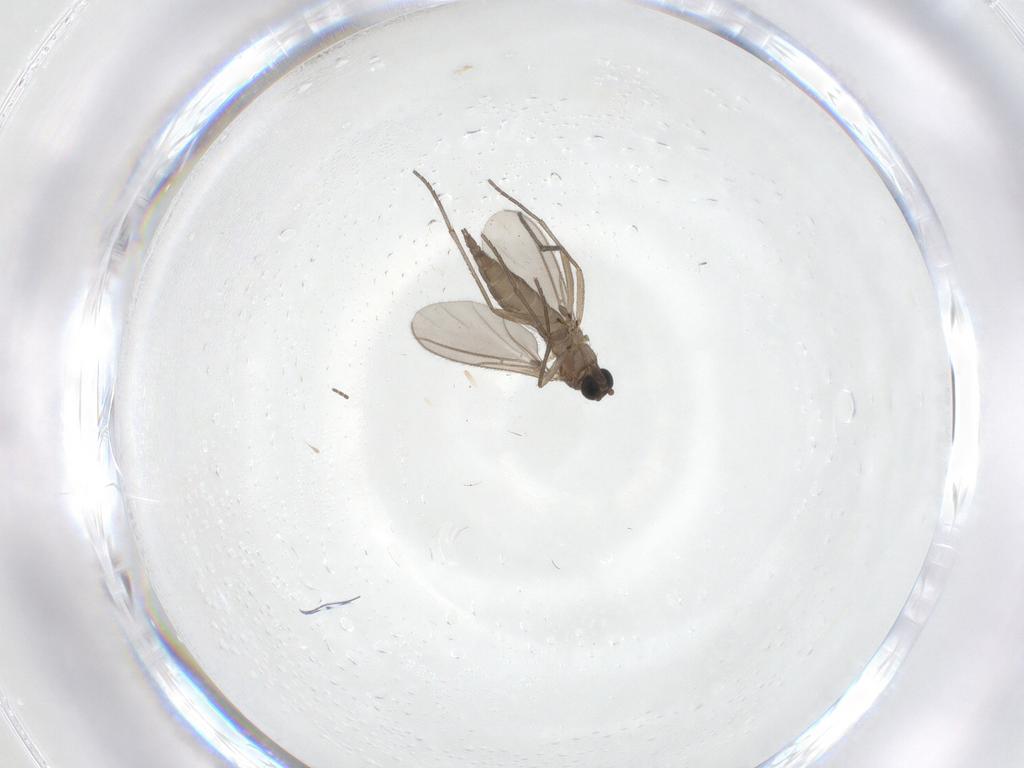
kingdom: Animalia
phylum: Arthropoda
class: Insecta
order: Diptera
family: Sciaridae
